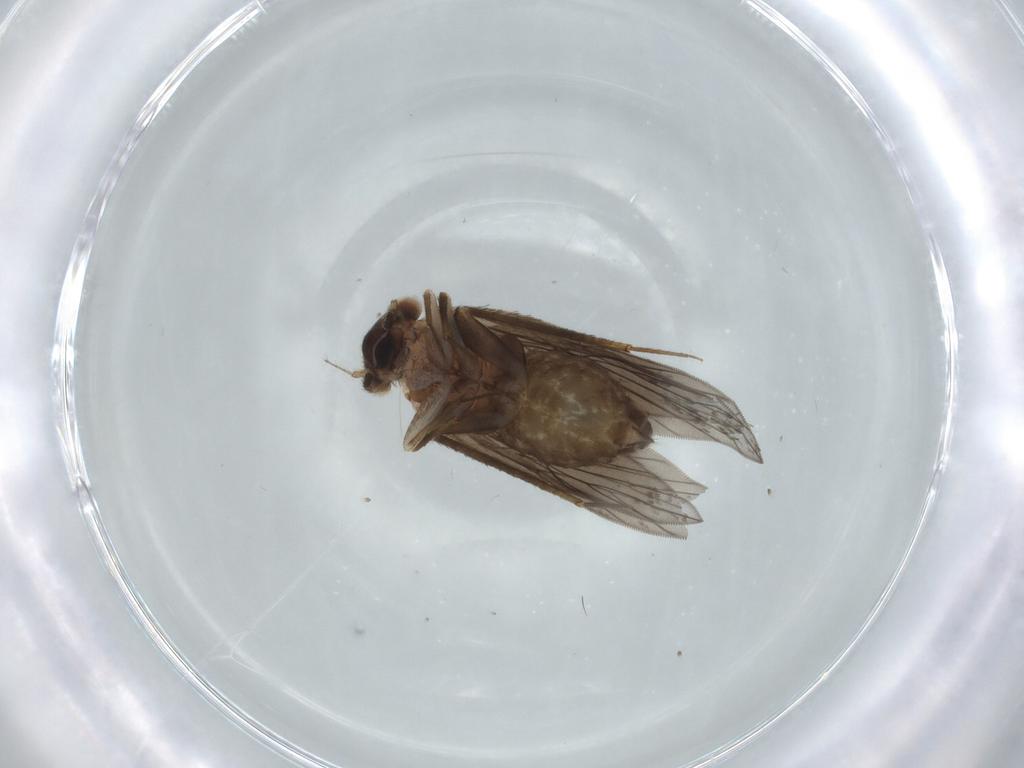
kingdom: Animalia
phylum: Arthropoda
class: Insecta
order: Psocodea
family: Lepidopsocidae
